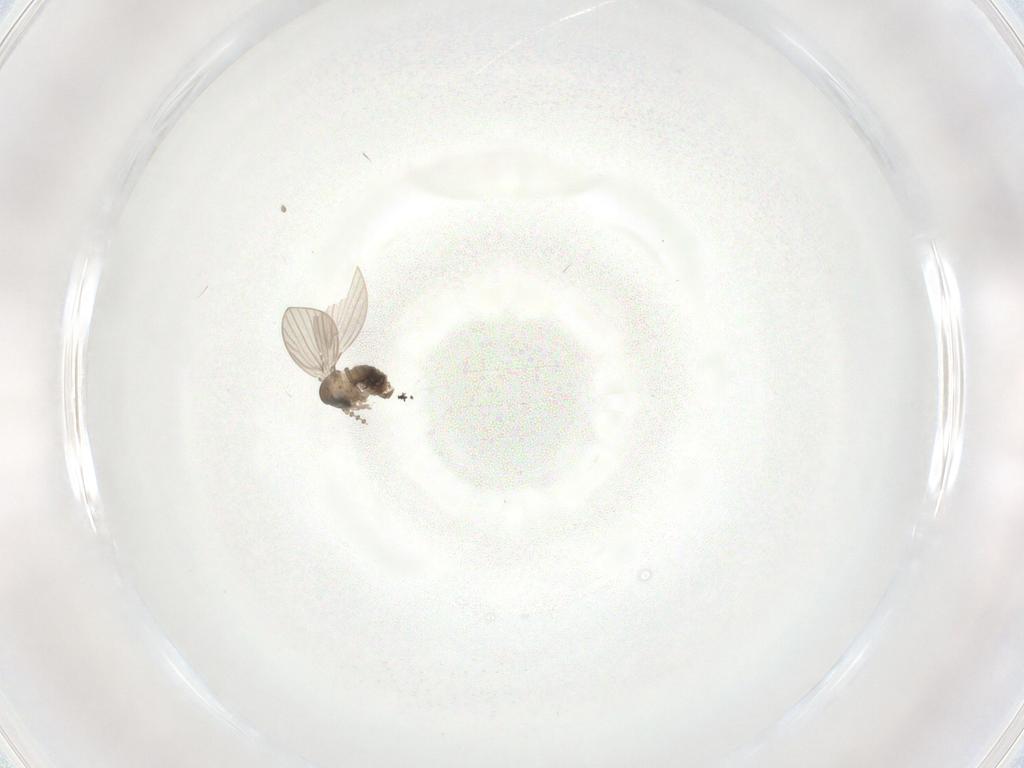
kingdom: Animalia
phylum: Arthropoda
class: Insecta
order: Diptera
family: Psychodidae
